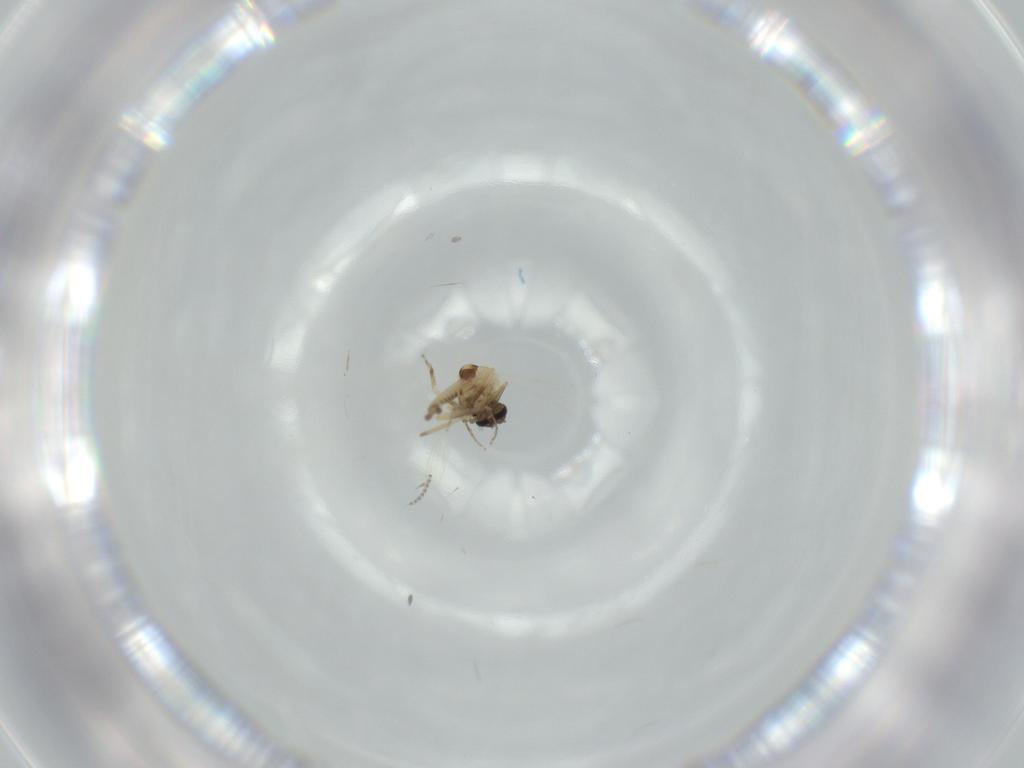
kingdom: Animalia
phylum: Arthropoda
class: Insecta
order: Diptera
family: Ceratopogonidae
